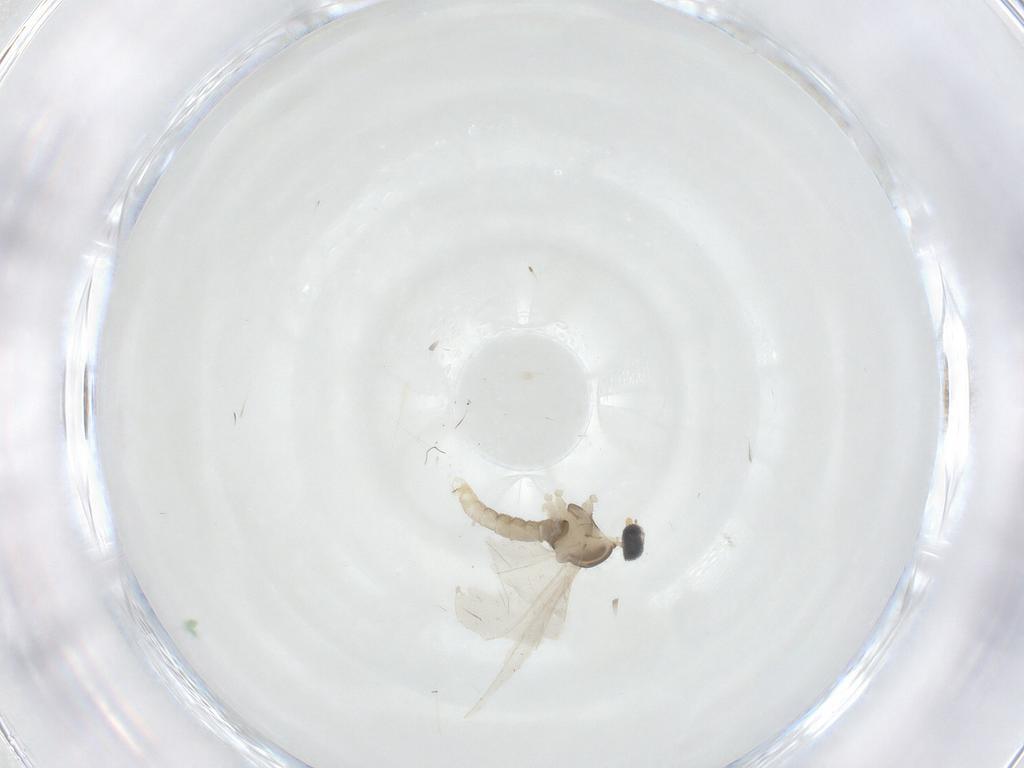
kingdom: Animalia
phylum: Arthropoda
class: Insecta
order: Diptera
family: Cecidomyiidae
